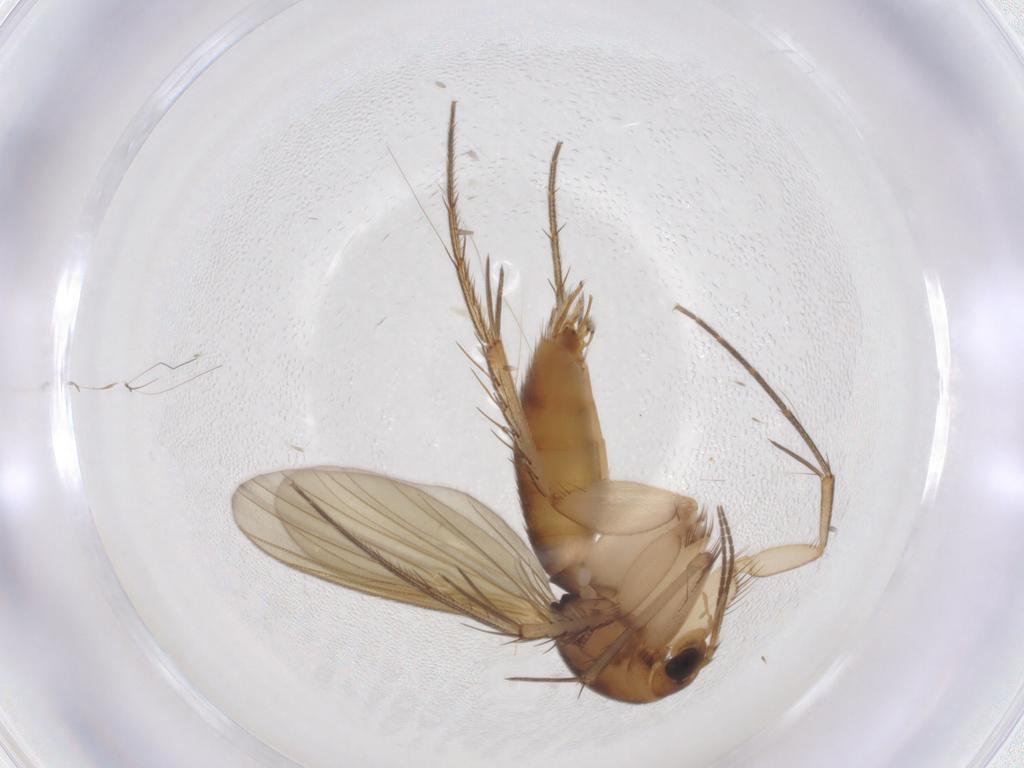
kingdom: Animalia
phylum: Arthropoda
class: Insecta
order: Diptera
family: Mycetophilidae
